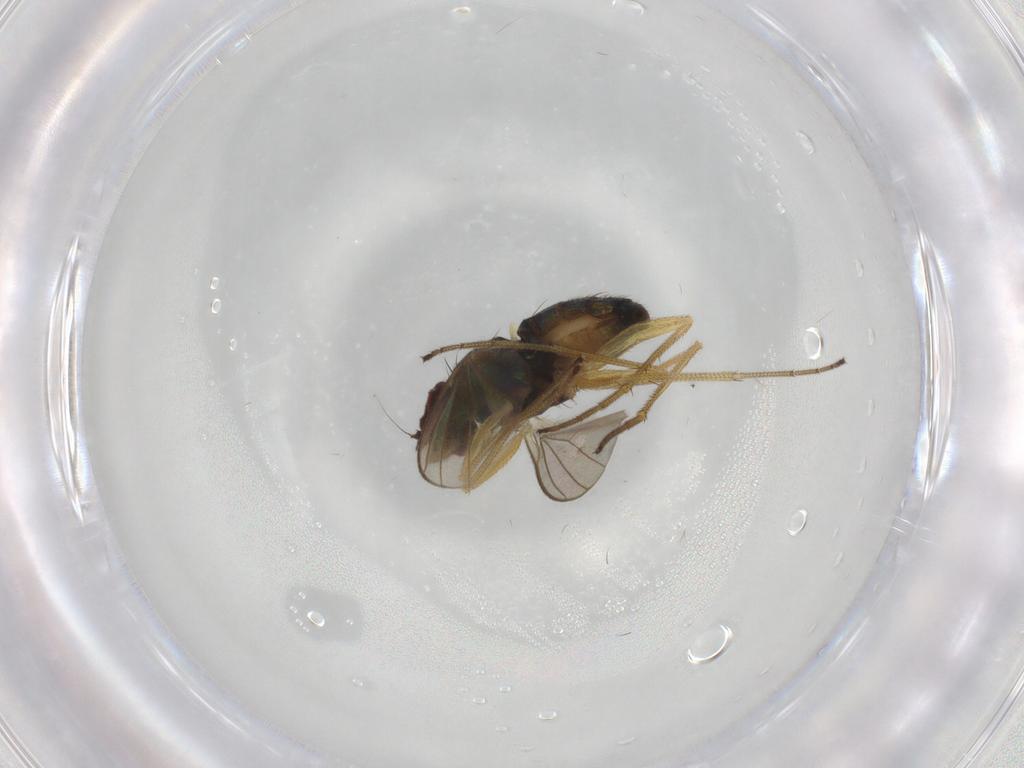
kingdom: Animalia
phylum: Arthropoda
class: Insecta
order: Diptera
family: Dolichopodidae
